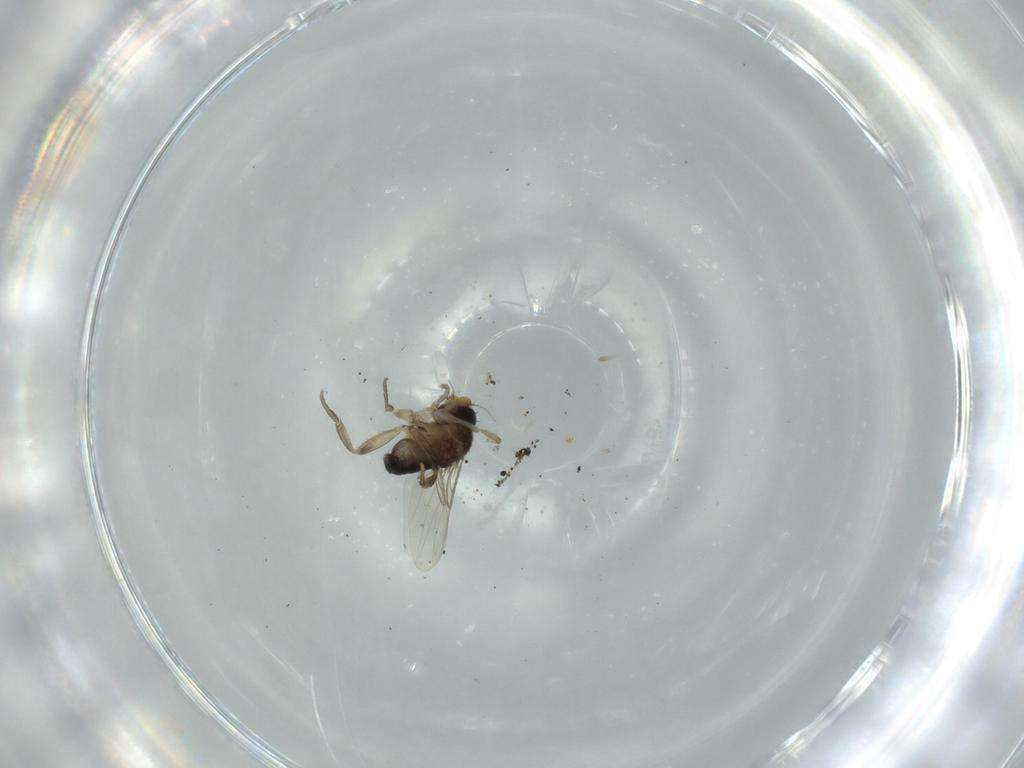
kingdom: Animalia
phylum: Arthropoda
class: Insecta
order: Diptera
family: Phoridae
